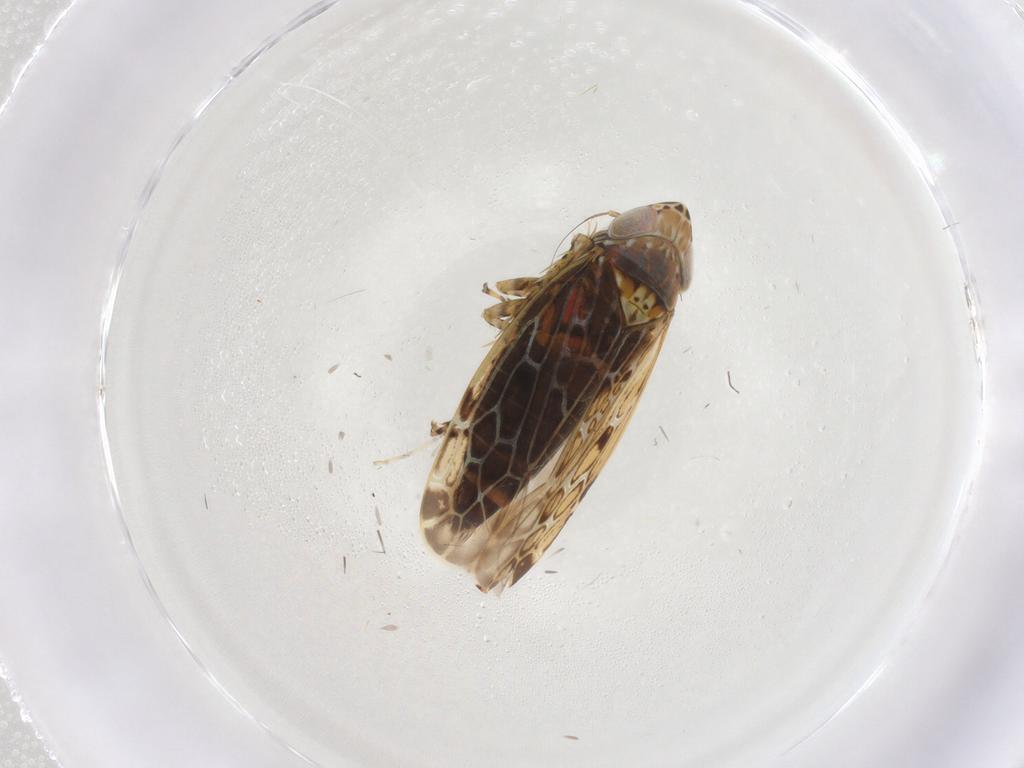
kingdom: Animalia
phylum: Arthropoda
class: Insecta
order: Hemiptera
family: Cicadellidae
